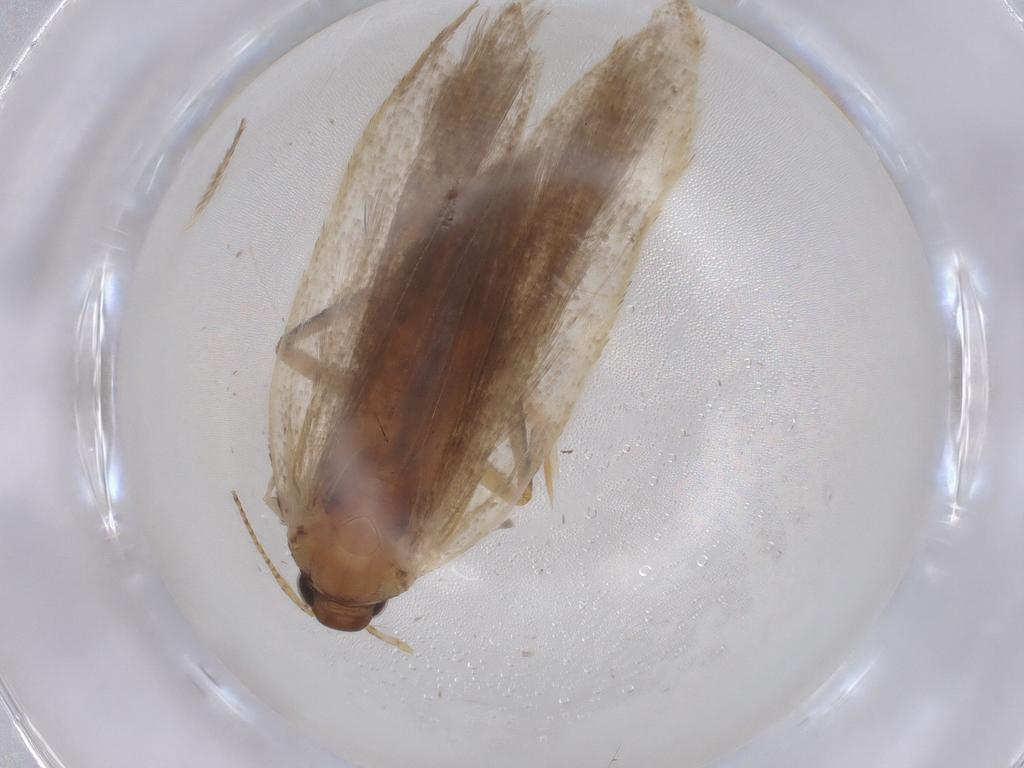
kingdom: Animalia
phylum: Arthropoda
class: Insecta
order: Lepidoptera
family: Gelechiidae
